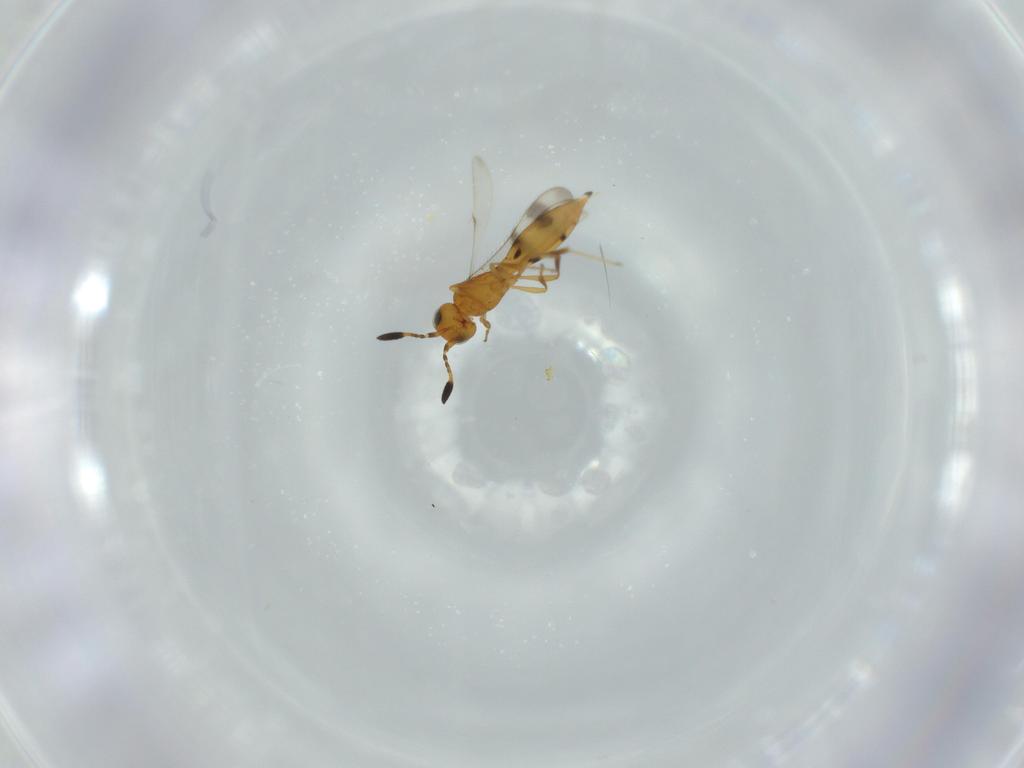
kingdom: Animalia
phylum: Arthropoda
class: Insecta
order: Hymenoptera
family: Scelionidae
